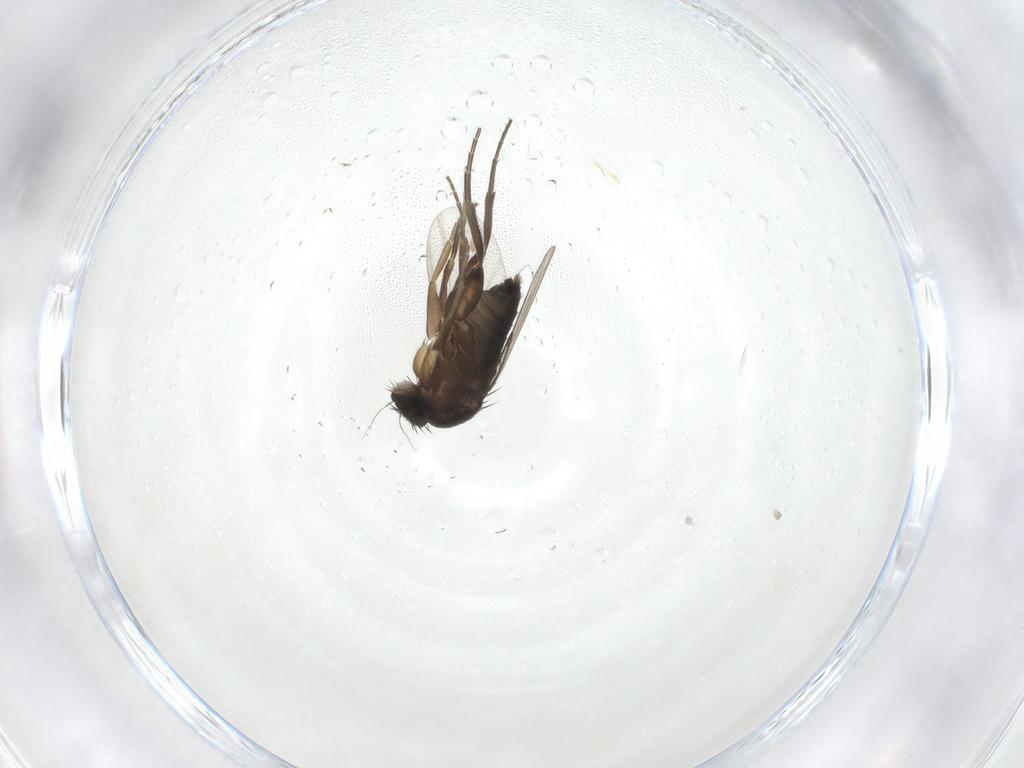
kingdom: Animalia
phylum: Arthropoda
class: Insecta
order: Diptera
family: Phoridae
